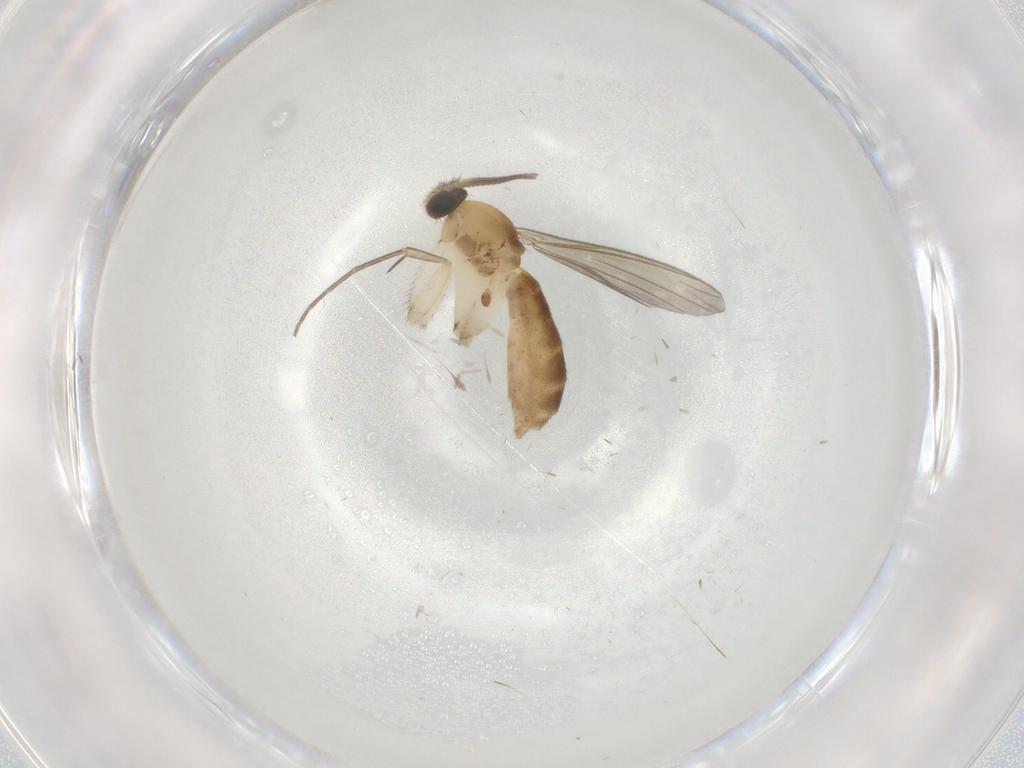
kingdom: Animalia
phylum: Arthropoda
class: Insecta
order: Diptera
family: Mycetophilidae
